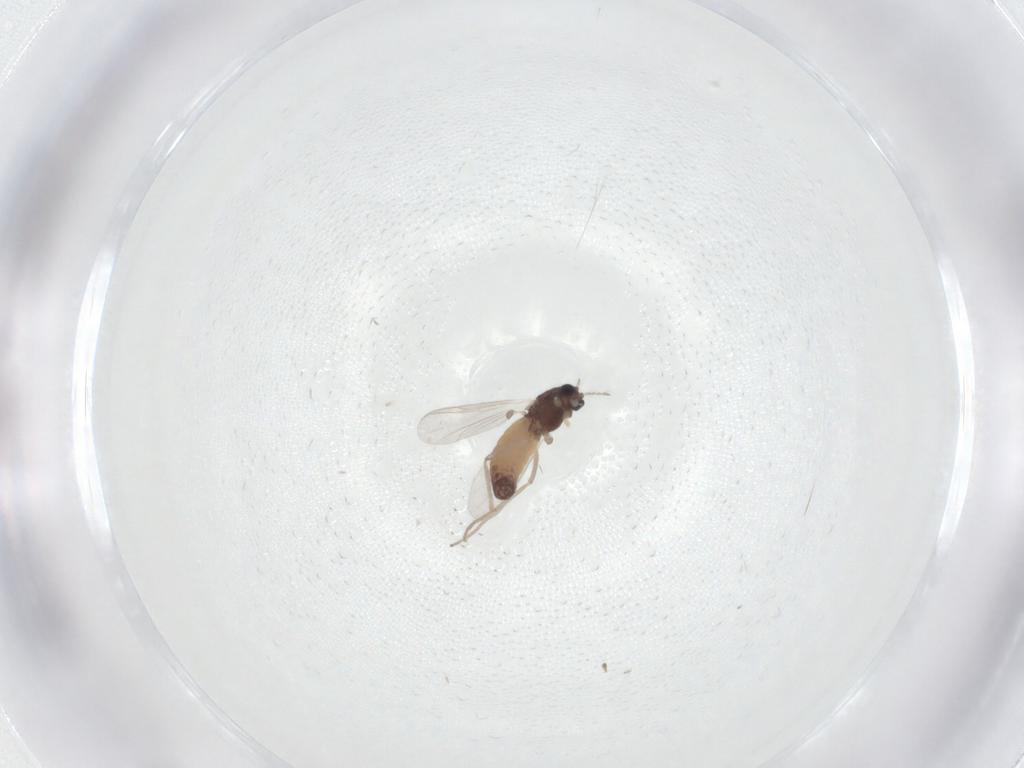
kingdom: Animalia
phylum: Arthropoda
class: Insecta
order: Diptera
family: Chironomidae
